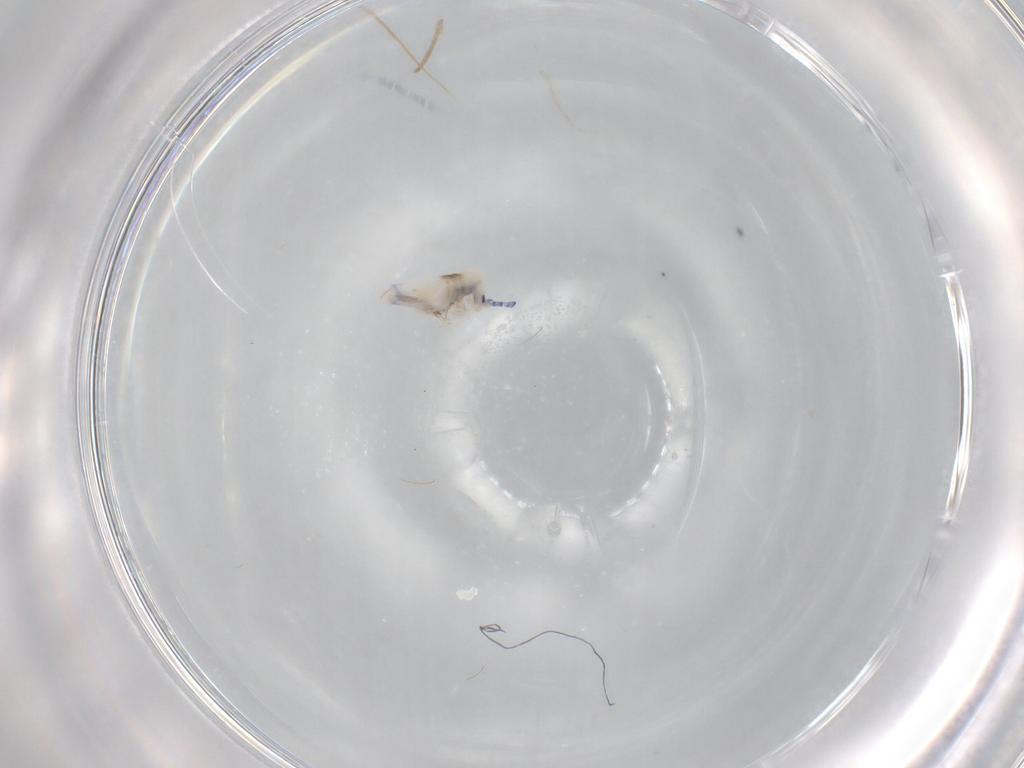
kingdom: Animalia
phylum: Arthropoda
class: Collembola
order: Entomobryomorpha
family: Entomobryidae
